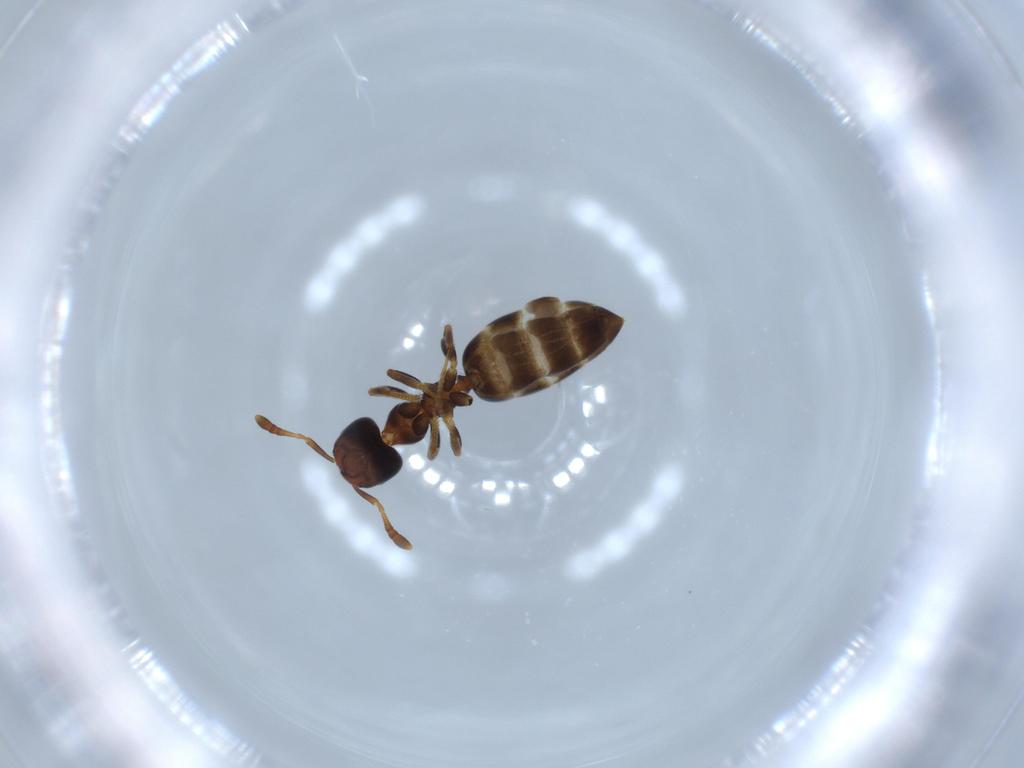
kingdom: Animalia
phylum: Arthropoda
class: Insecta
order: Hymenoptera
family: Formicidae
